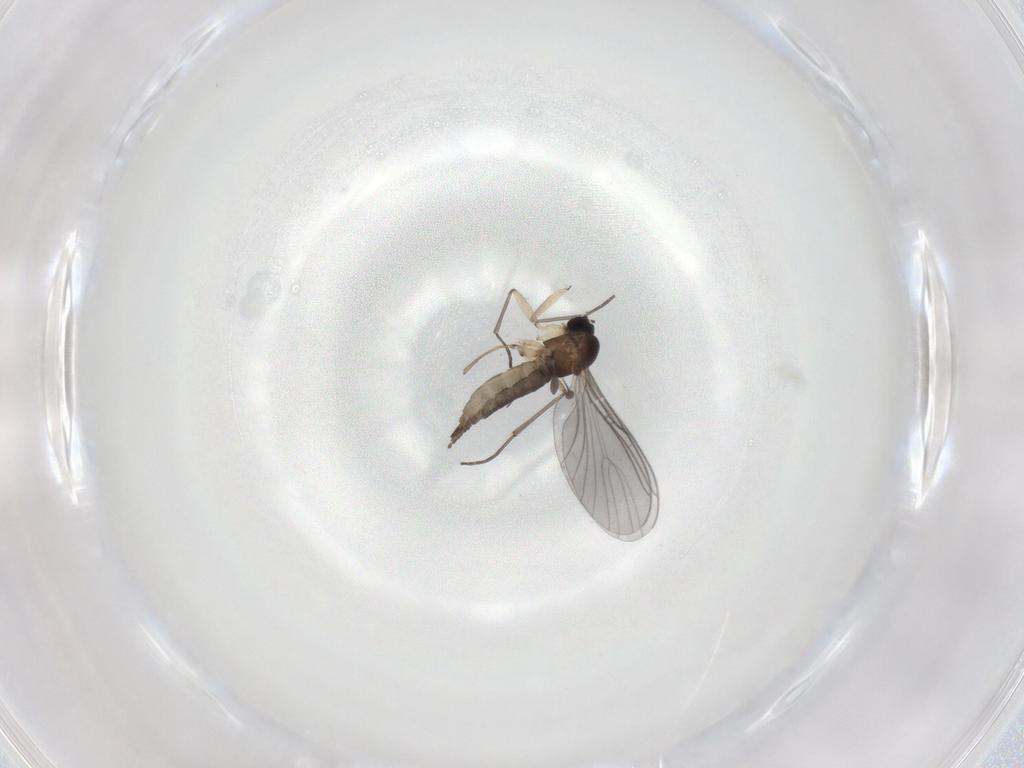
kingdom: Animalia
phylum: Arthropoda
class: Insecta
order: Diptera
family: Sciaridae
